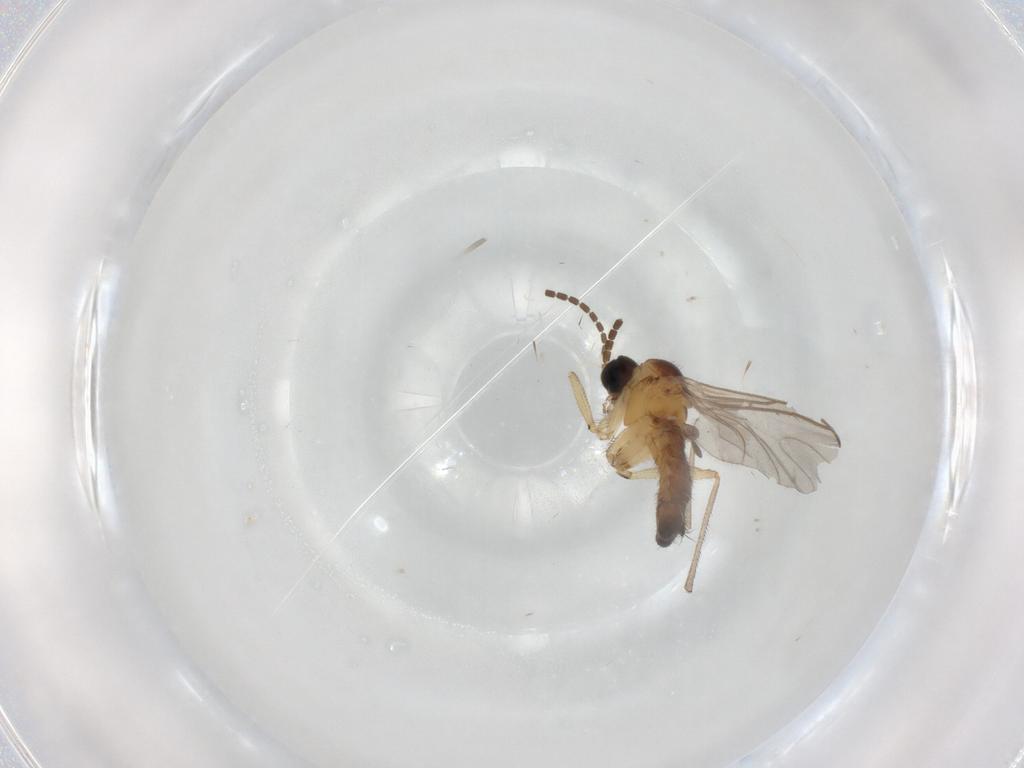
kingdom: Animalia
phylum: Arthropoda
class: Insecta
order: Diptera
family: Sciaridae
